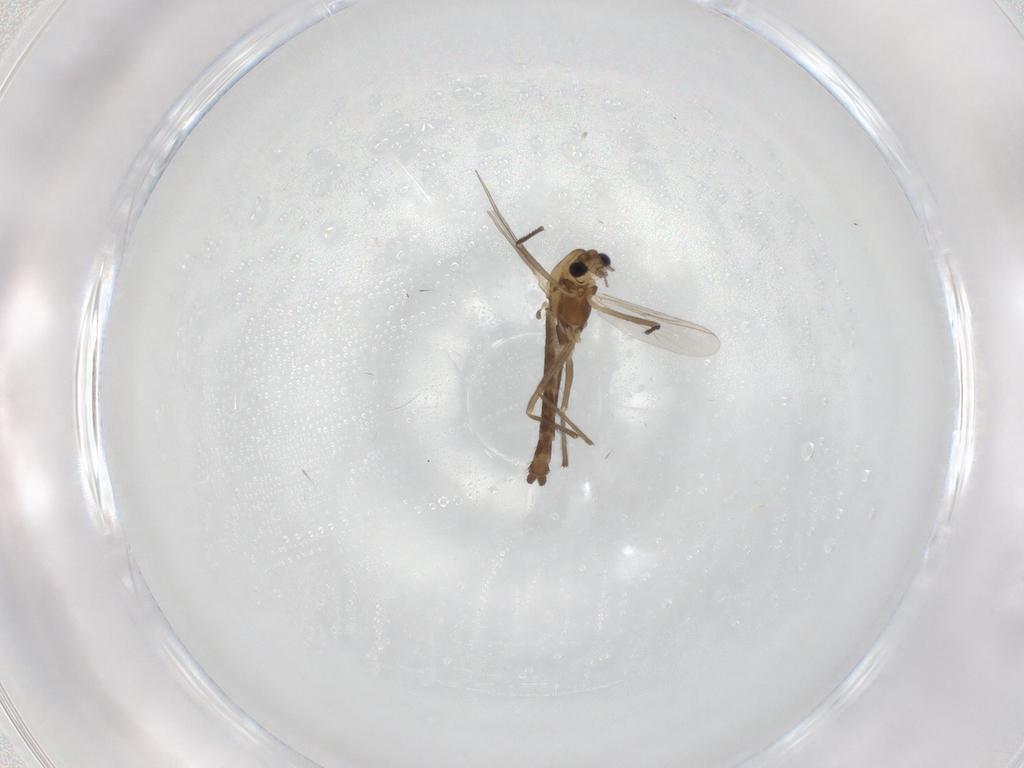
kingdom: Animalia
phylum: Arthropoda
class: Insecta
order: Diptera
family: Chironomidae
